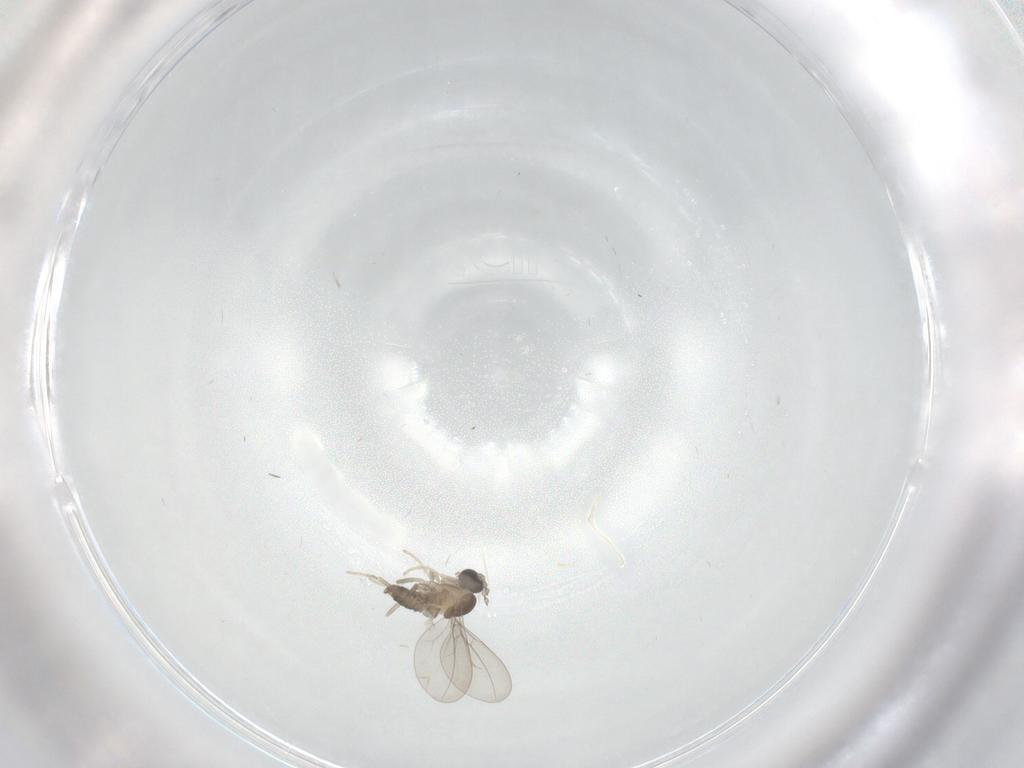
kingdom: Animalia
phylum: Arthropoda
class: Insecta
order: Diptera
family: Cecidomyiidae
